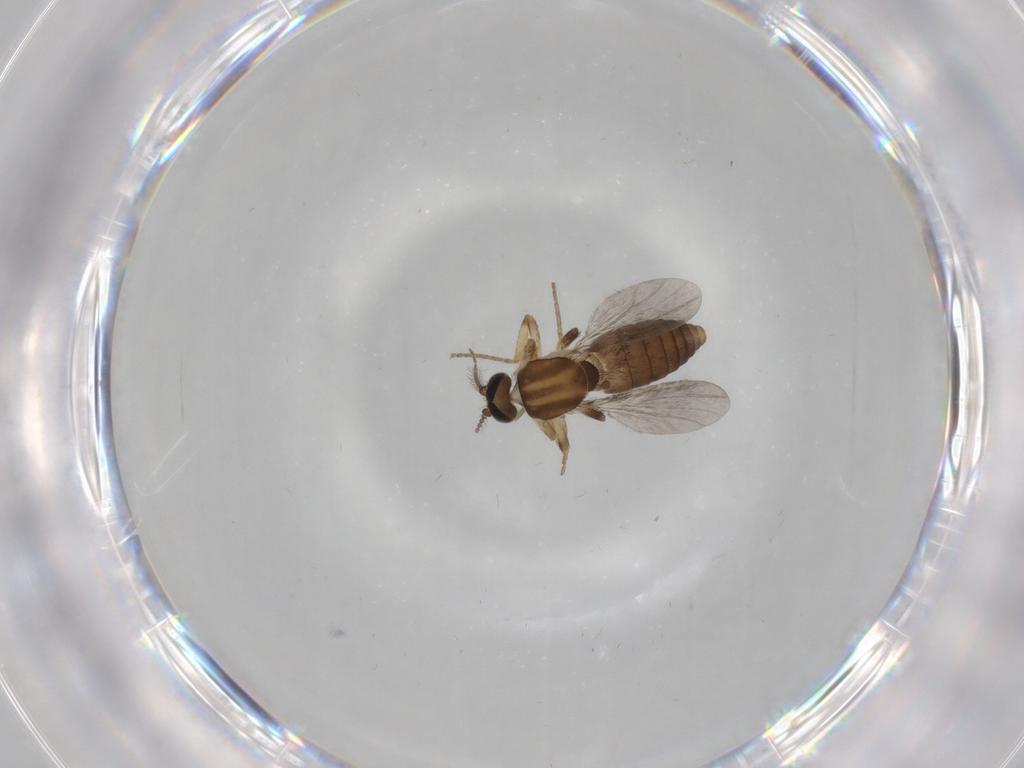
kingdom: Animalia
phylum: Arthropoda
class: Insecta
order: Diptera
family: Ceratopogonidae
